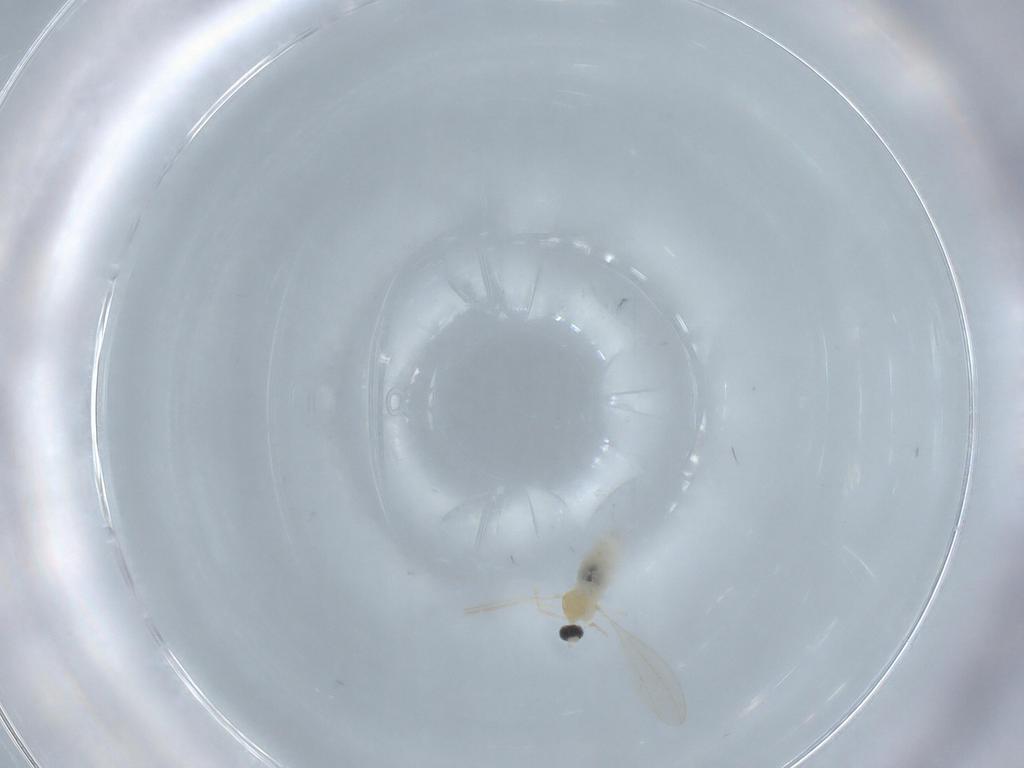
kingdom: Animalia
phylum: Arthropoda
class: Insecta
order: Diptera
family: Cecidomyiidae
